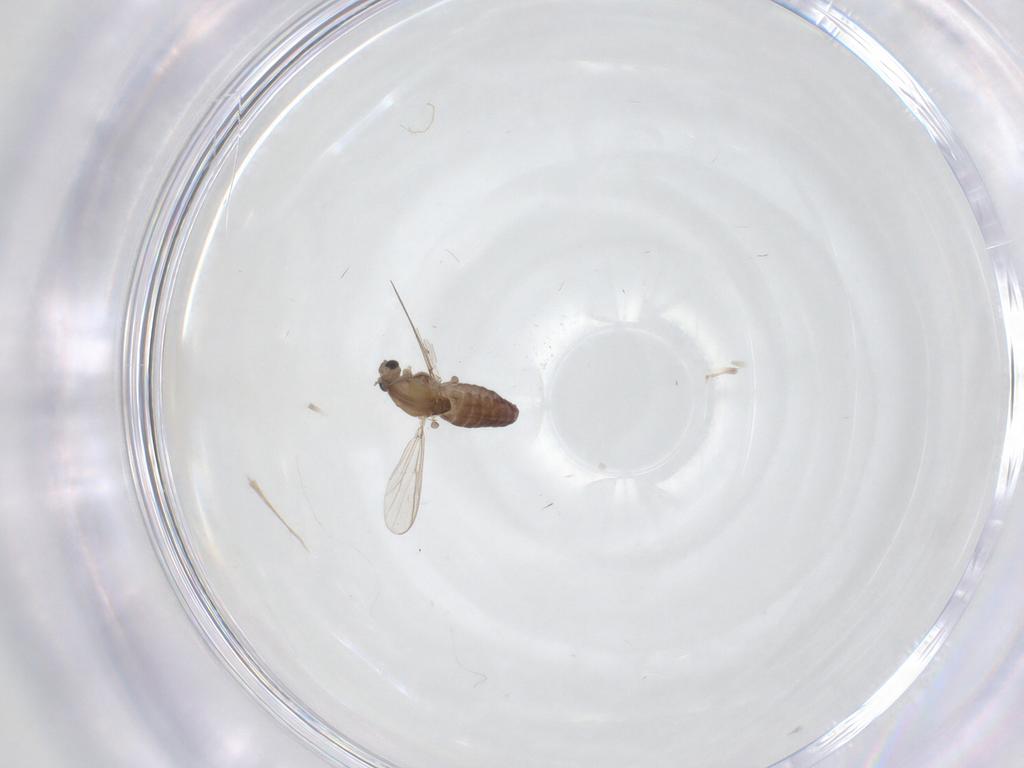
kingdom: Animalia
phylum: Arthropoda
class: Insecta
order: Diptera
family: Chironomidae
